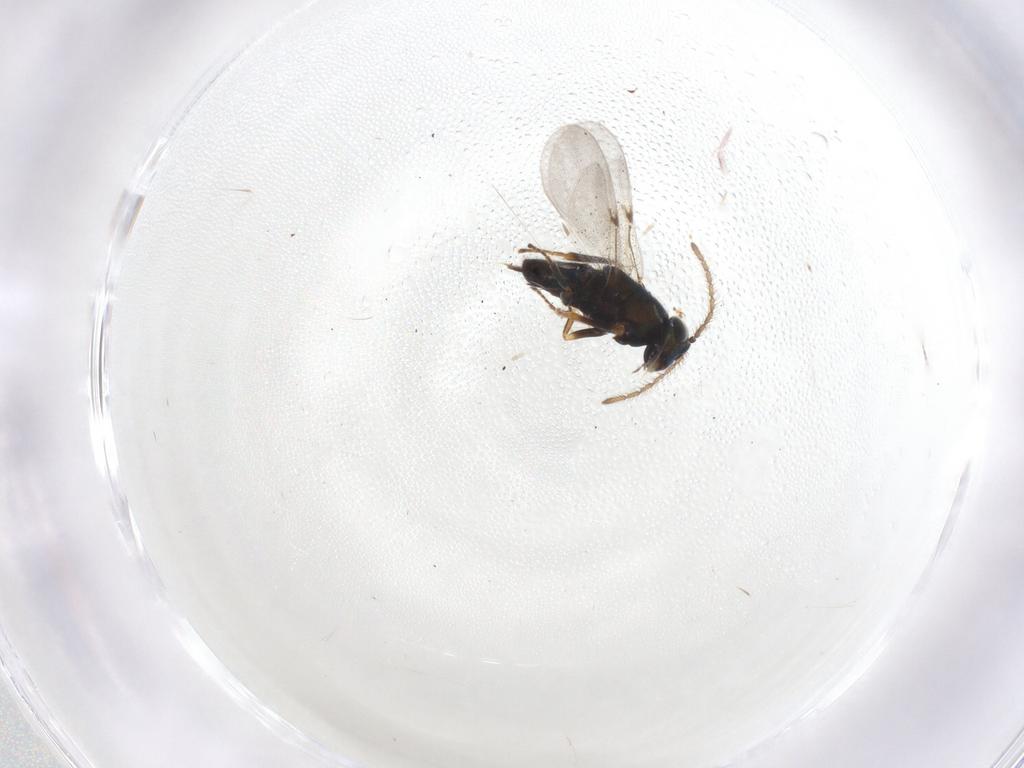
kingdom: Animalia
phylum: Arthropoda
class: Insecta
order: Hymenoptera
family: Encyrtidae
